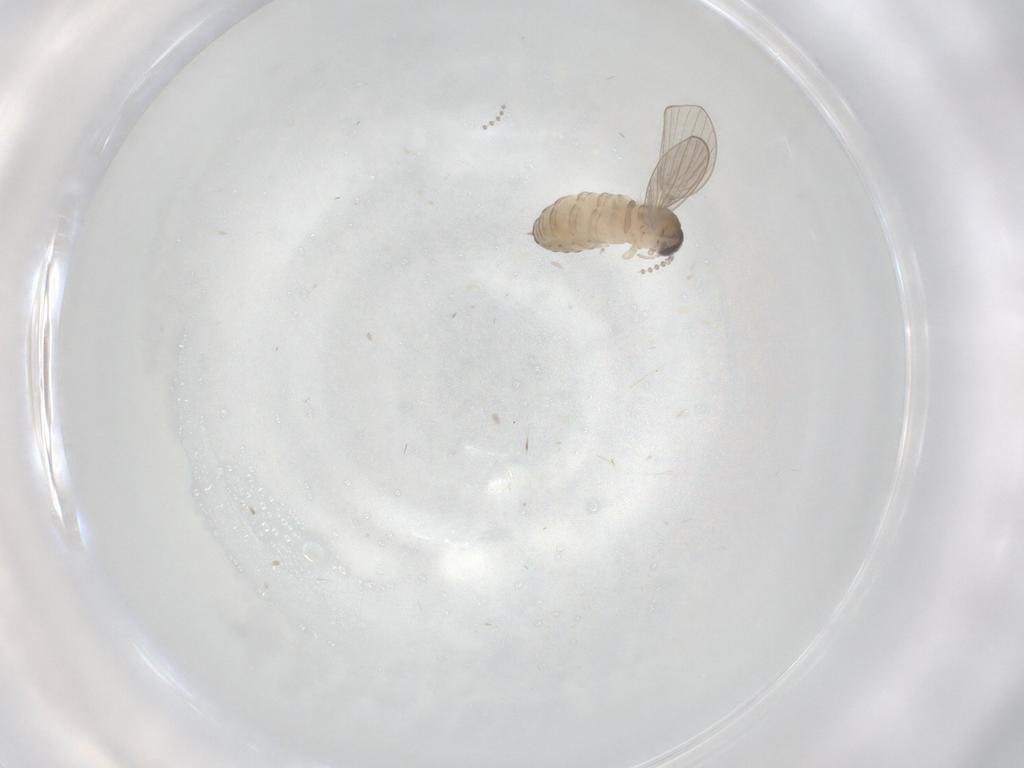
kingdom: Animalia
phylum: Arthropoda
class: Insecta
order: Diptera
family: Psychodidae
